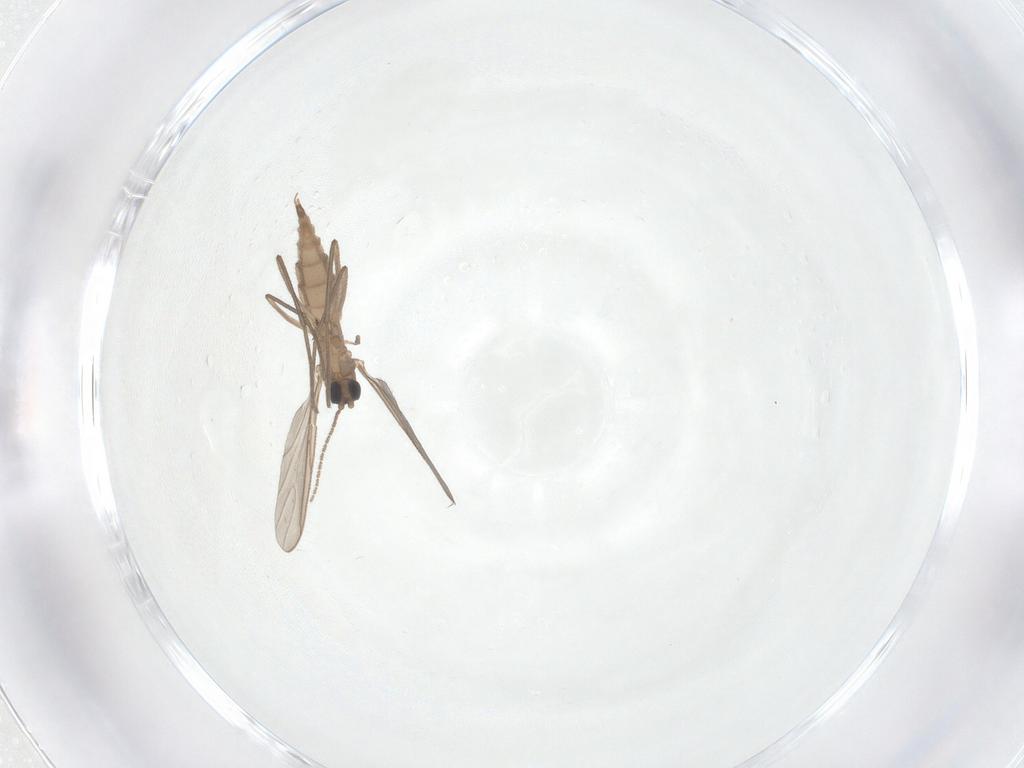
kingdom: Animalia
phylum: Arthropoda
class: Insecta
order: Diptera
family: Sciaridae
